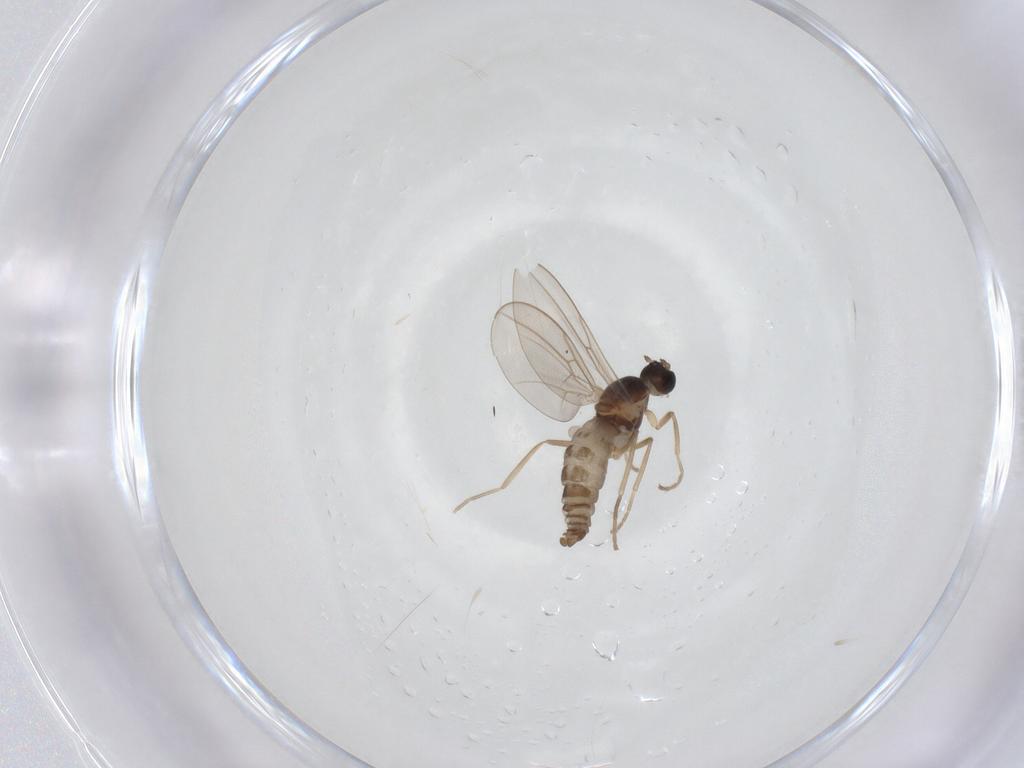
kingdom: Animalia
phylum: Arthropoda
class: Insecta
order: Diptera
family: Cecidomyiidae
